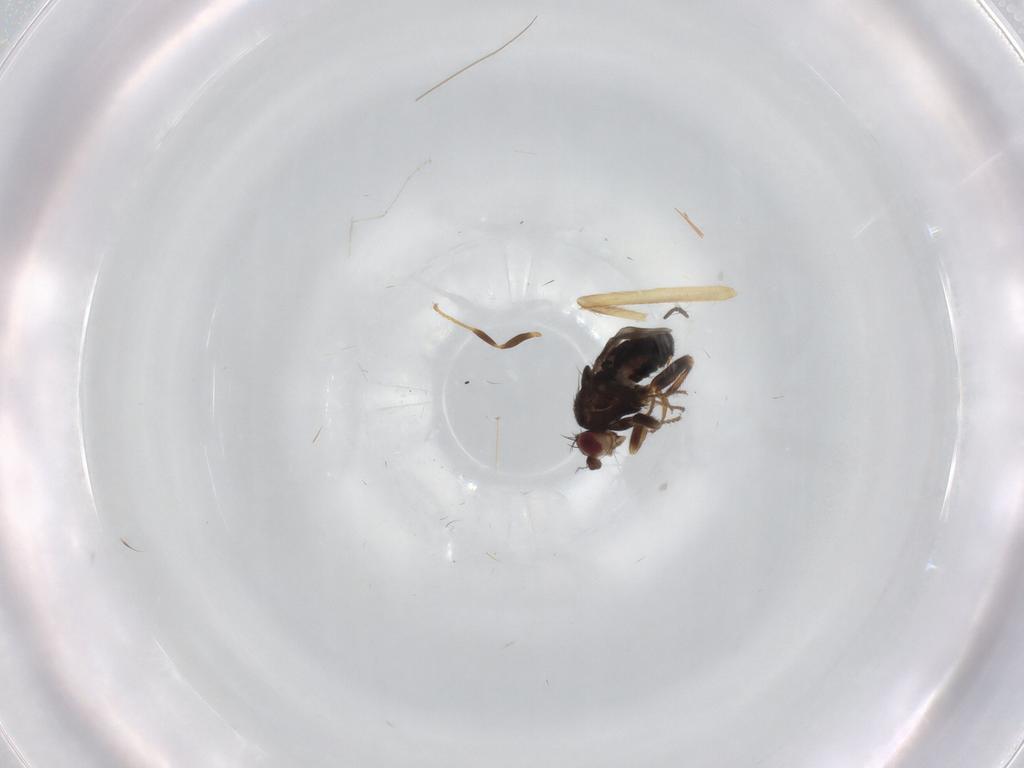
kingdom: Animalia
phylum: Arthropoda
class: Insecta
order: Diptera
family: Sphaeroceridae
